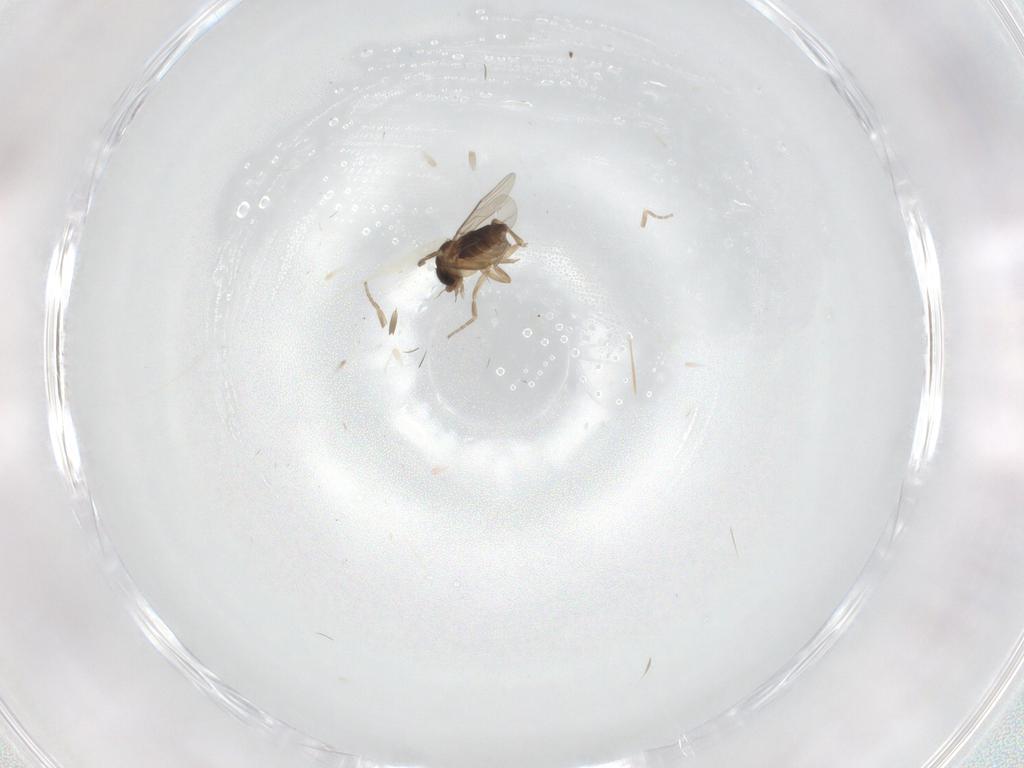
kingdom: Animalia
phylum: Arthropoda
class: Insecta
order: Diptera
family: Phoridae
